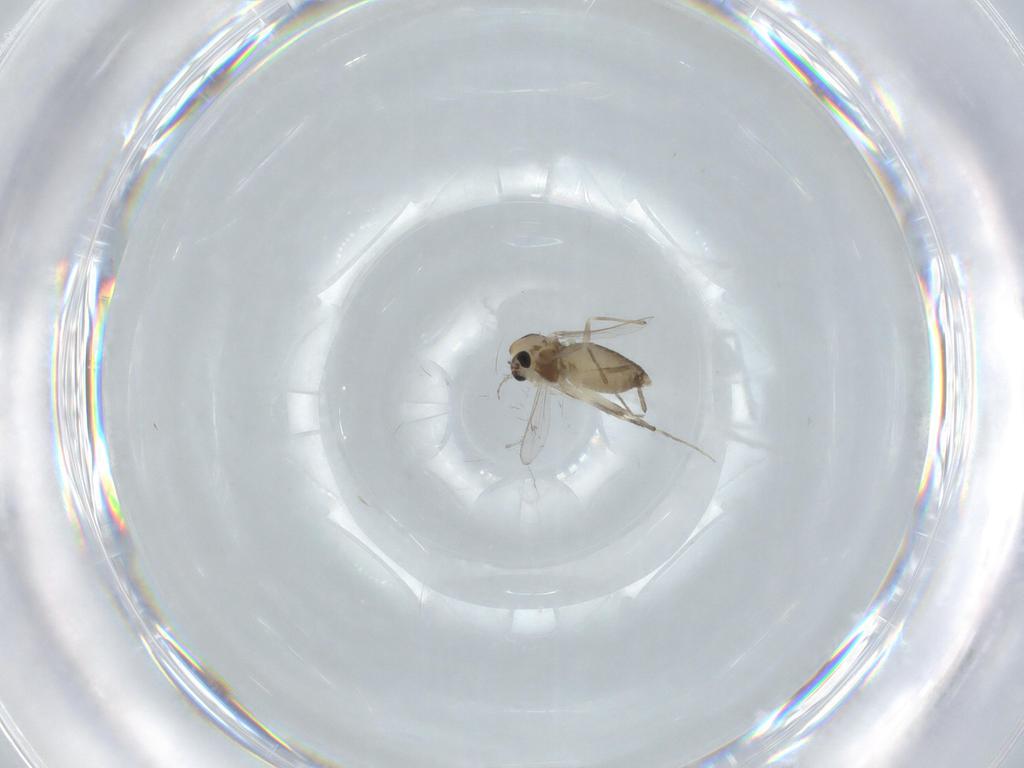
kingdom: Animalia
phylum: Arthropoda
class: Insecta
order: Diptera
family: Chironomidae
